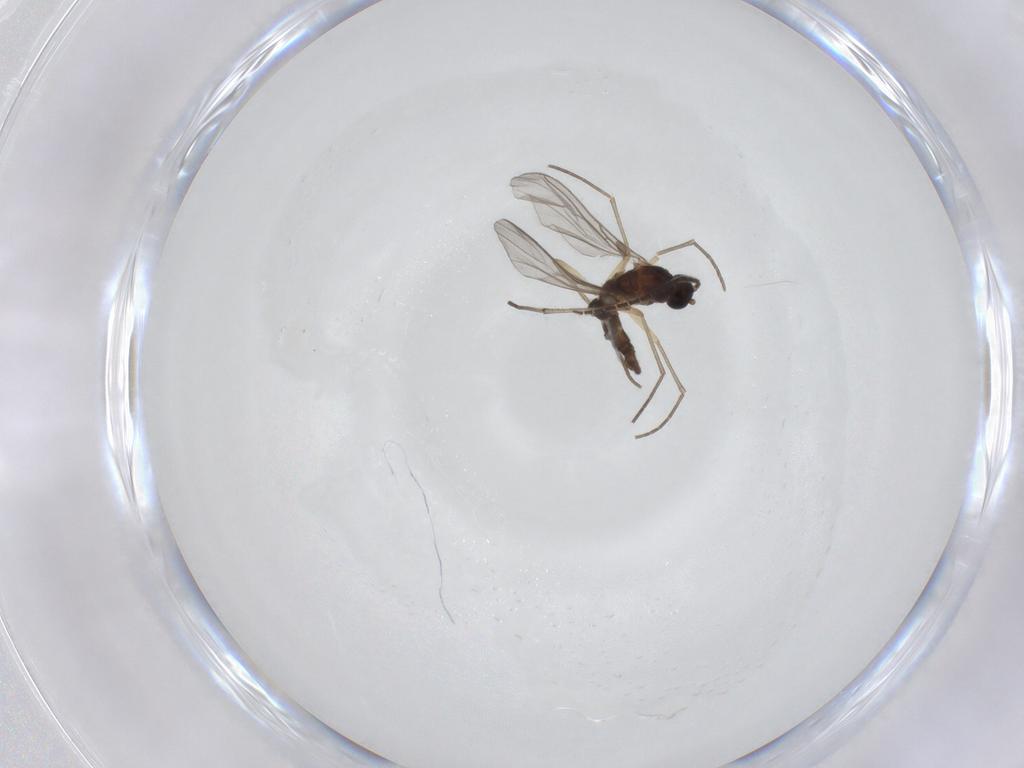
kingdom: Animalia
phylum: Arthropoda
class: Insecta
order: Diptera
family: Sciaridae
